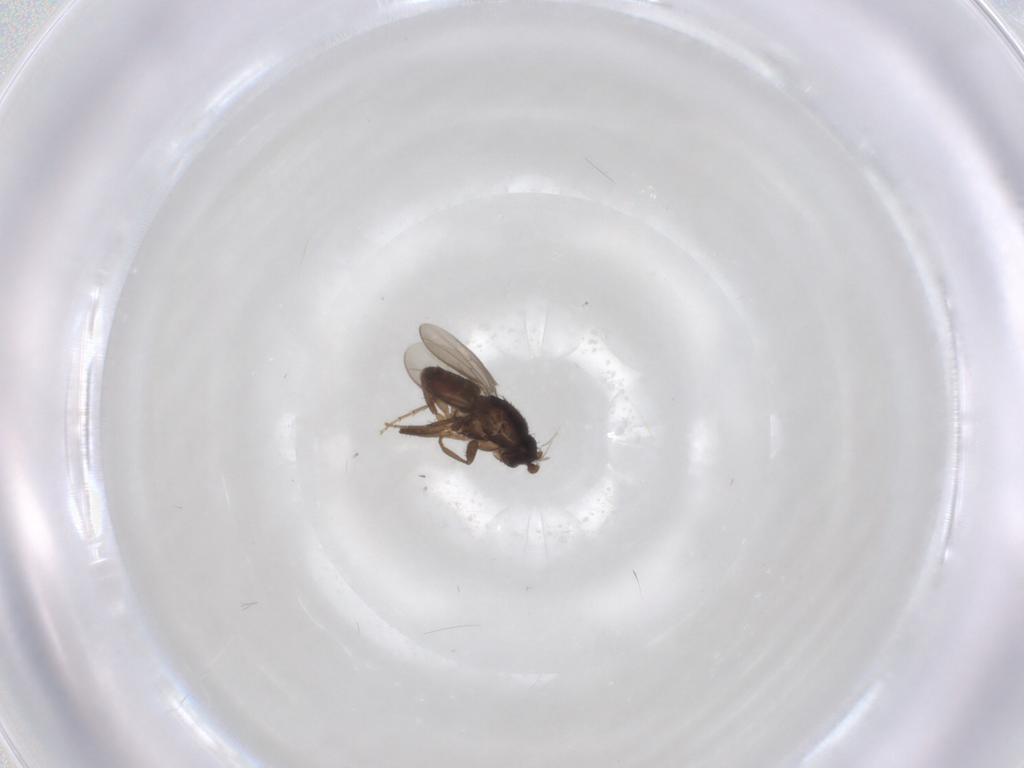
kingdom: Animalia
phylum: Arthropoda
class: Insecta
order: Diptera
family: Sphaeroceridae
